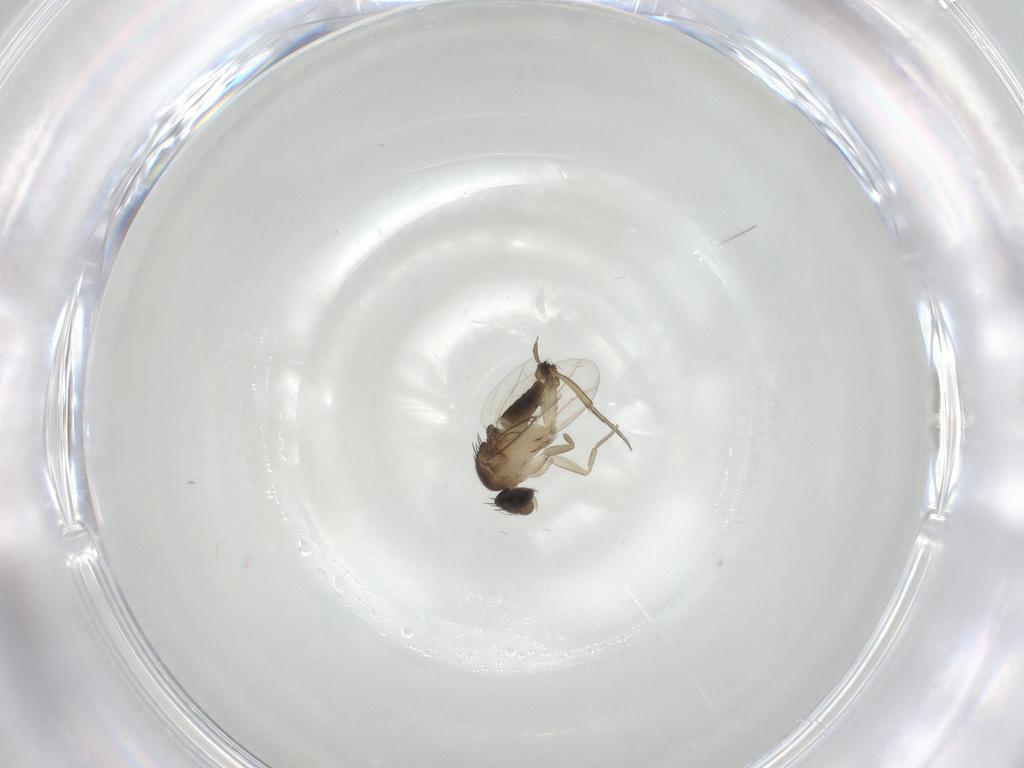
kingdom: Animalia
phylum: Arthropoda
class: Insecta
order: Diptera
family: Phoridae
